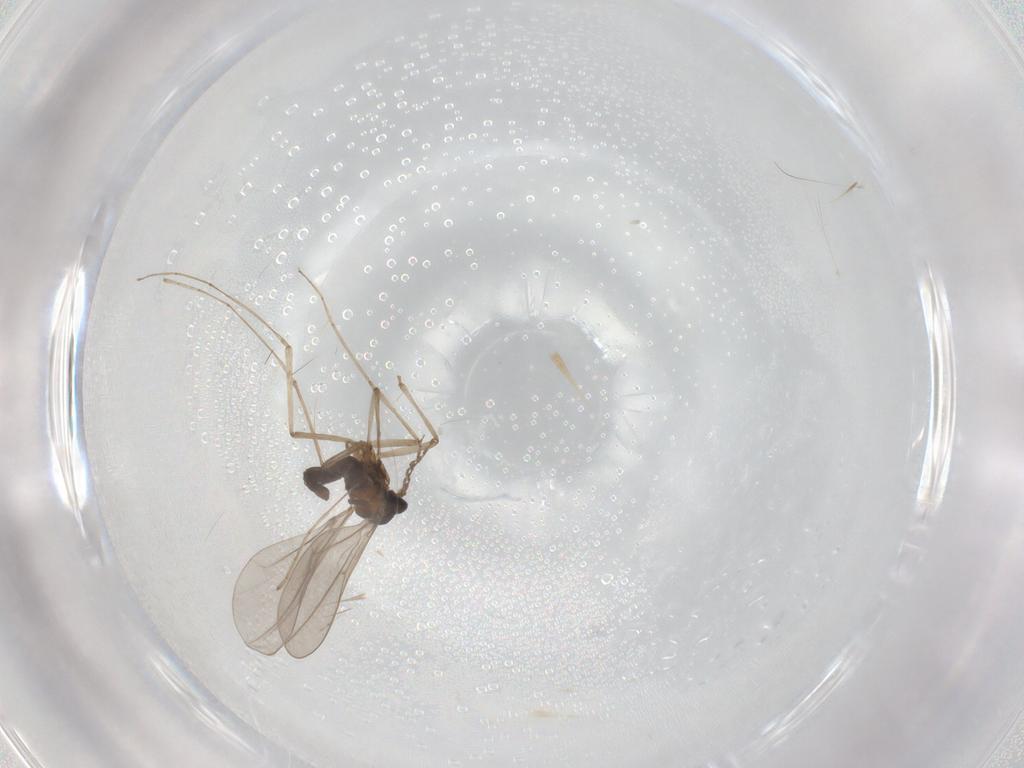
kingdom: Animalia
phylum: Arthropoda
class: Insecta
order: Diptera
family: Cecidomyiidae
